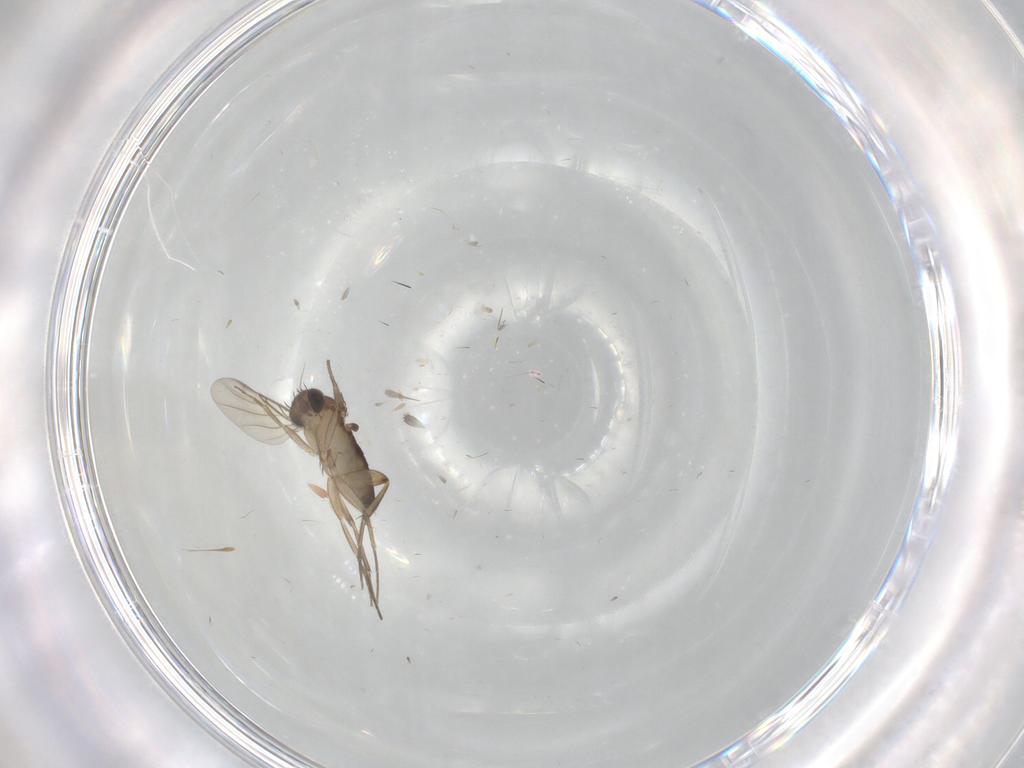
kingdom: Animalia
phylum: Arthropoda
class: Insecta
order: Diptera
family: Phoridae
